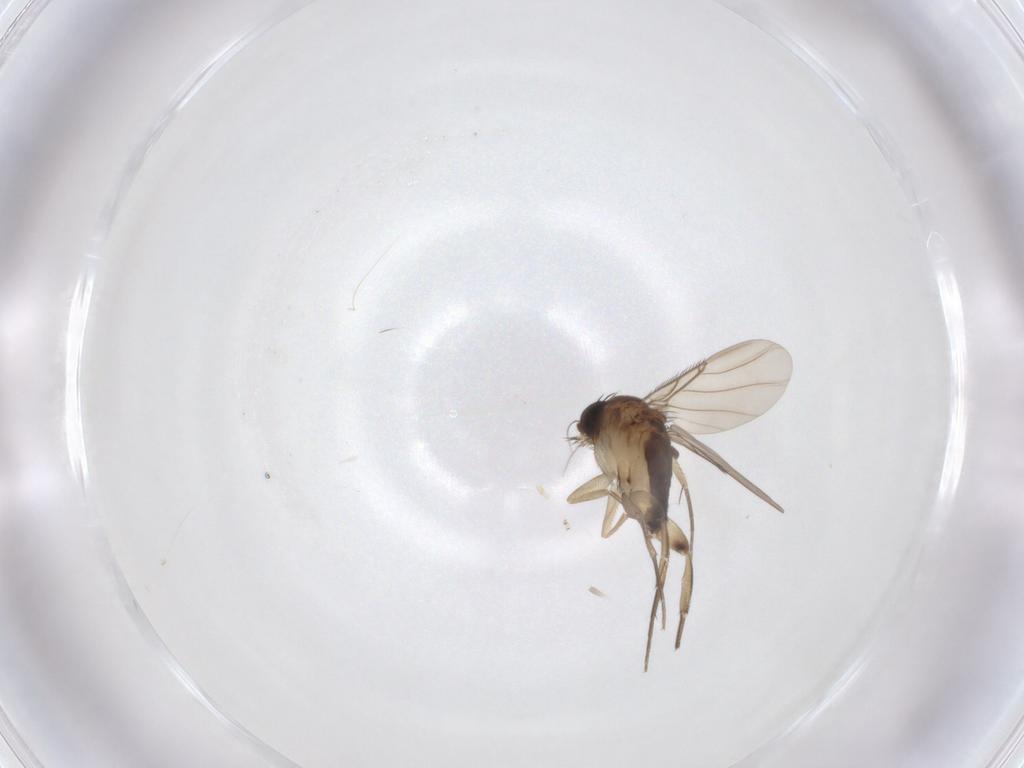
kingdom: Animalia
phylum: Arthropoda
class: Insecta
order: Diptera
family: Phoridae
